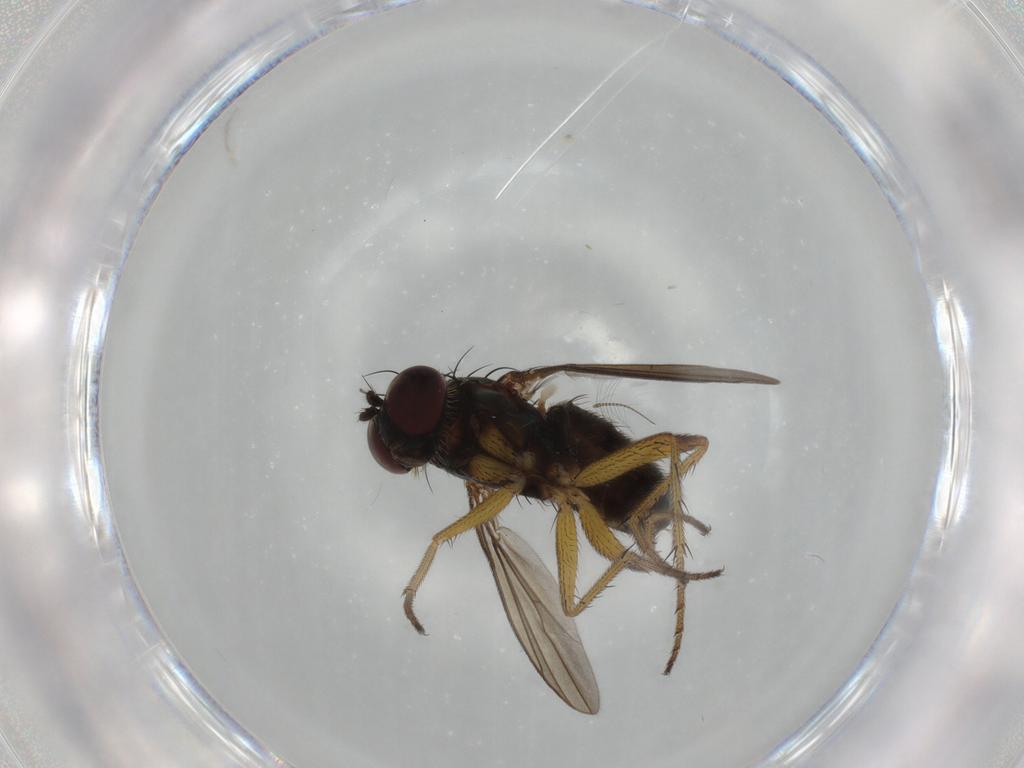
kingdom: Animalia
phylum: Arthropoda
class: Insecta
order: Diptera
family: Dolichopodidae
